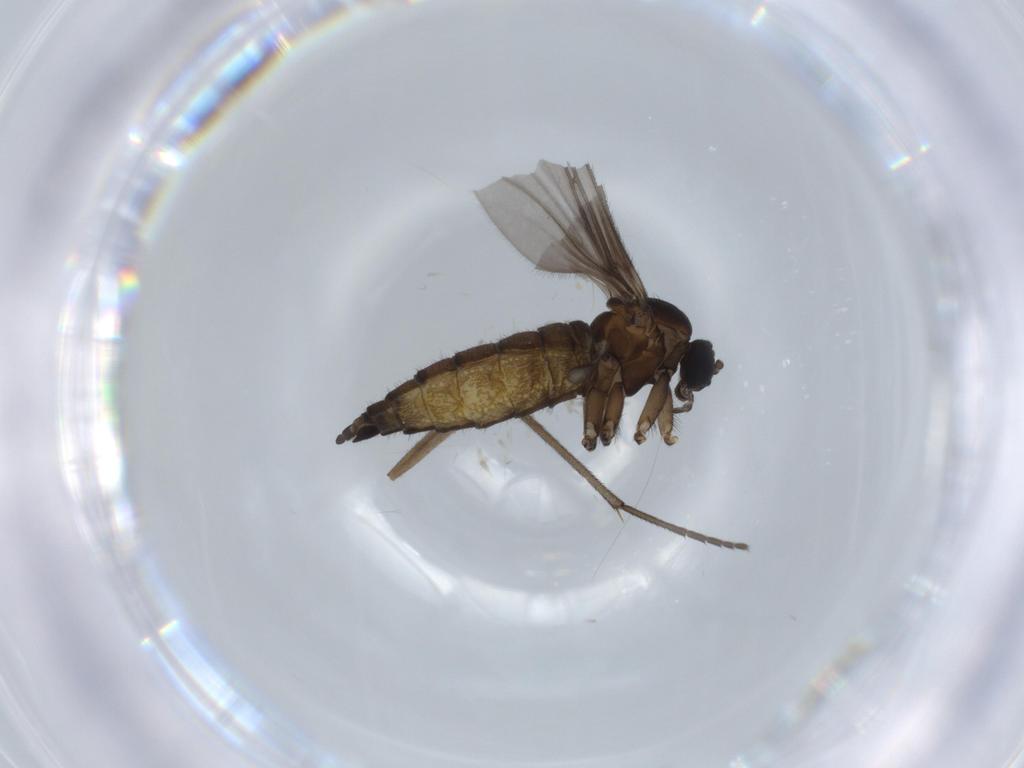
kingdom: Animalia
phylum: Arthropoda
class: Insecta
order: Diptera
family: Sciaridae
